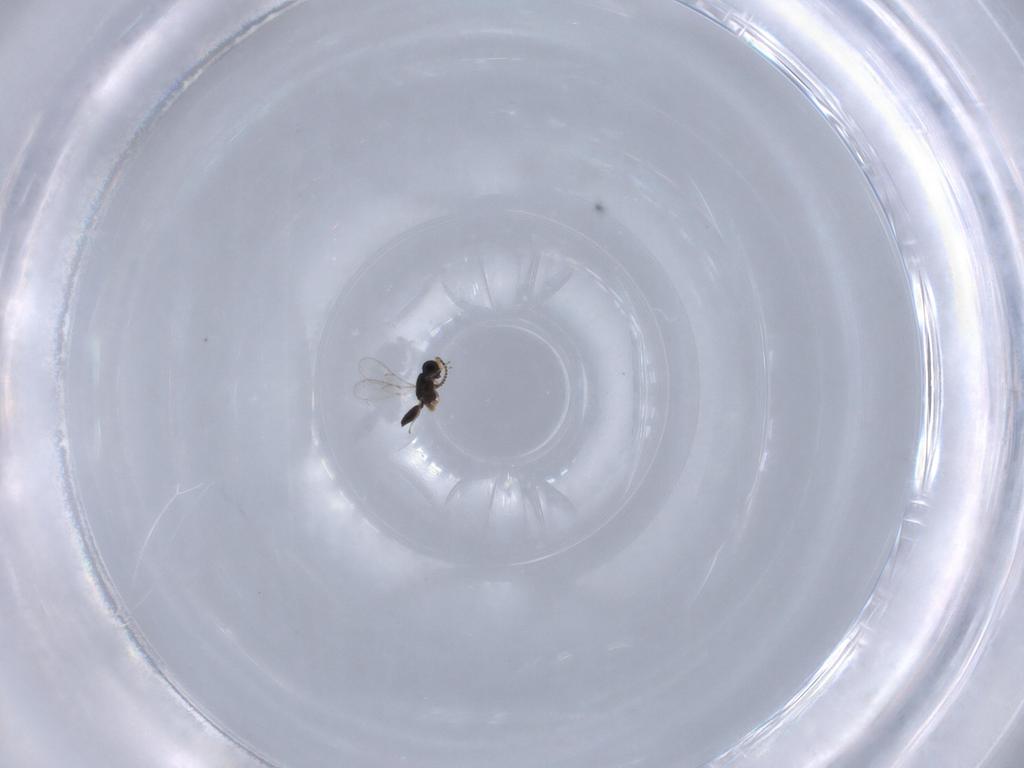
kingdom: Animalia
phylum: Arthropoda
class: Insecta
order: Hymenoptera
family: Scelionidae
